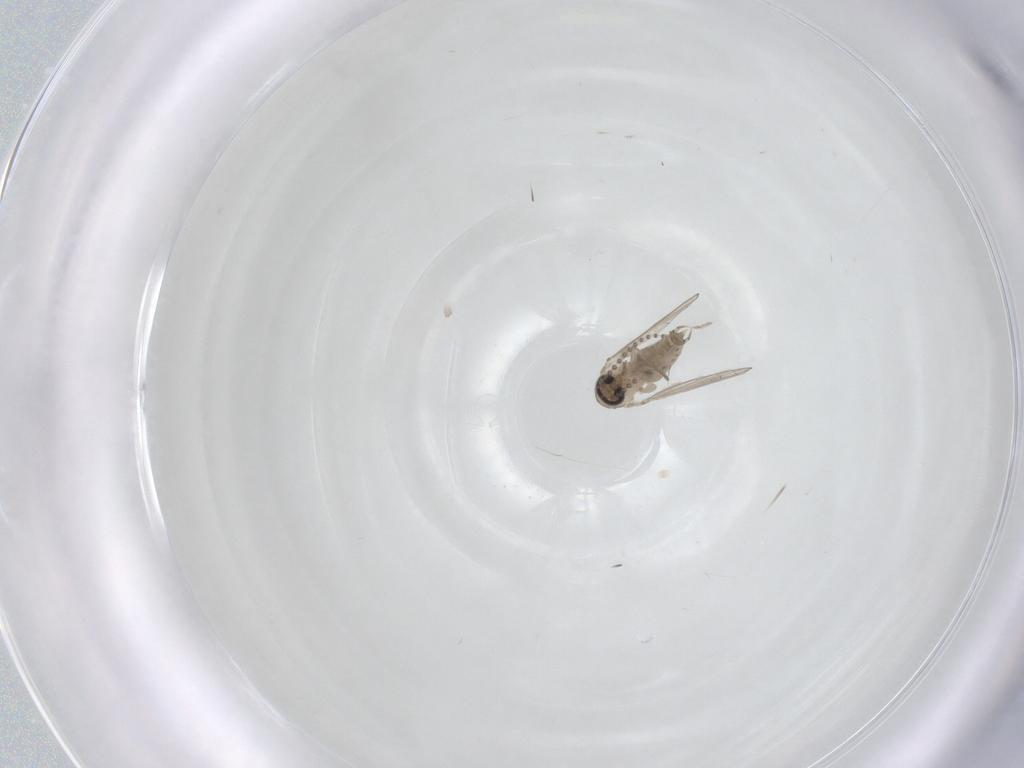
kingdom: Animalia
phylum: Arthropoda
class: Insecta
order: Diptera
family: Psychodidae
